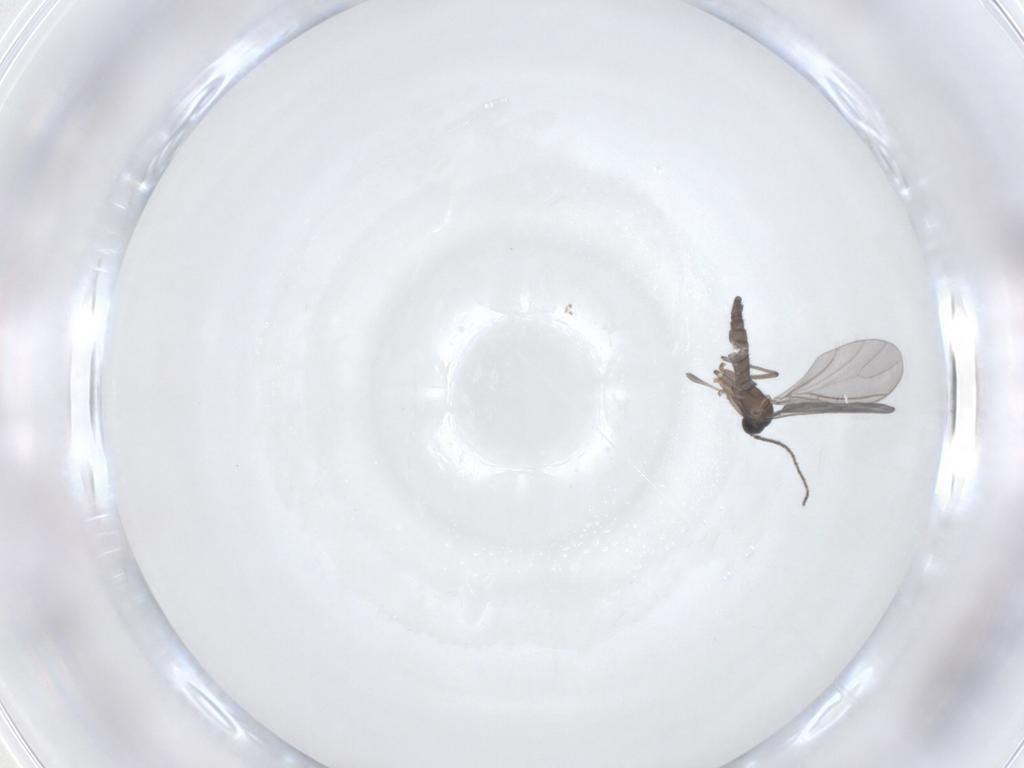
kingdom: Animalia
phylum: Arthropoda
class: Insecta
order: Diptera
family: Sciaridae
